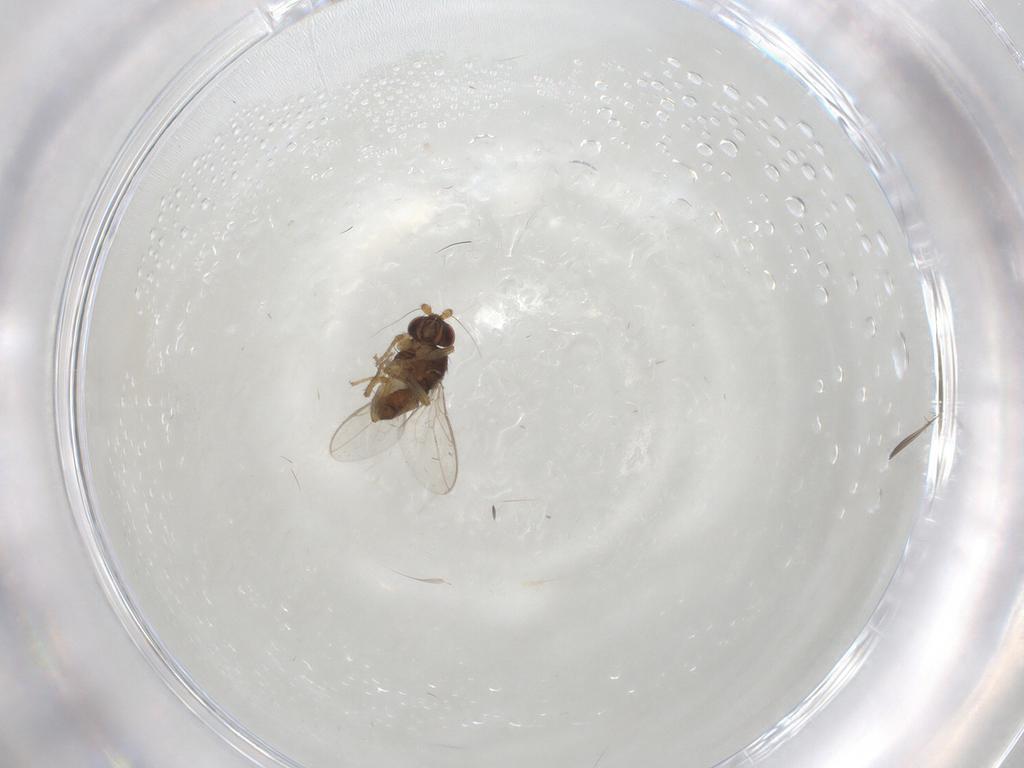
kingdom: Animalia
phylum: Arthropoda
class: Insecta
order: Diptera
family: Sphaeroceridae
